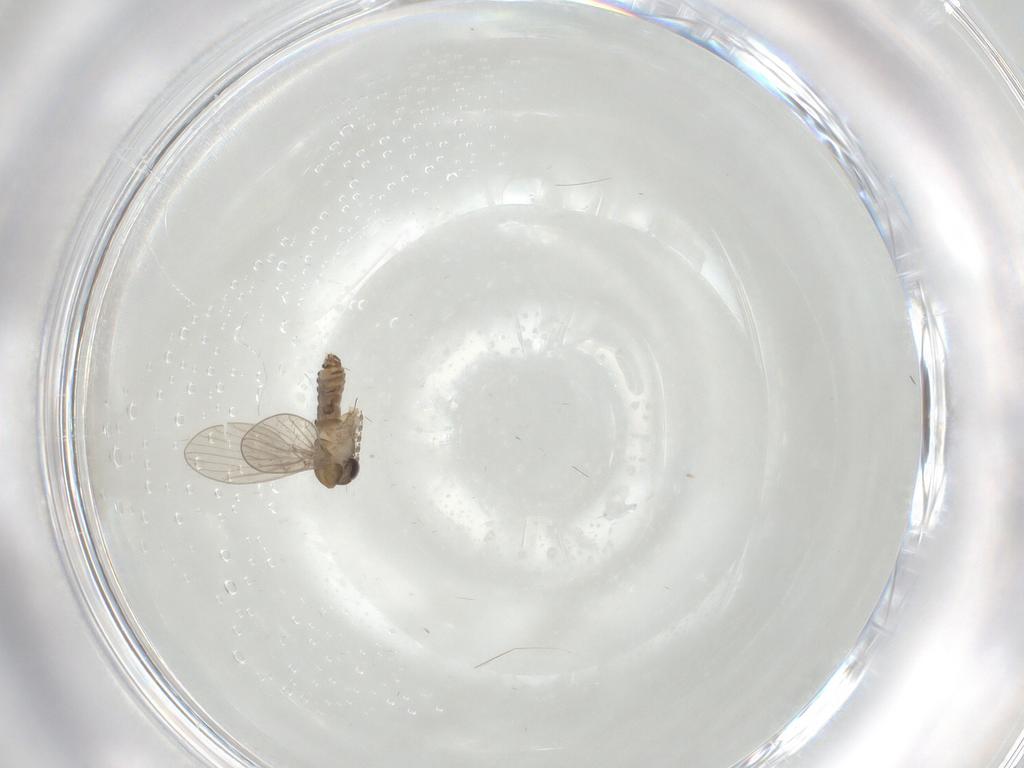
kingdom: Animalia
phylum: Arthropoda
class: Insecta
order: Diptera
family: Psychodidae
